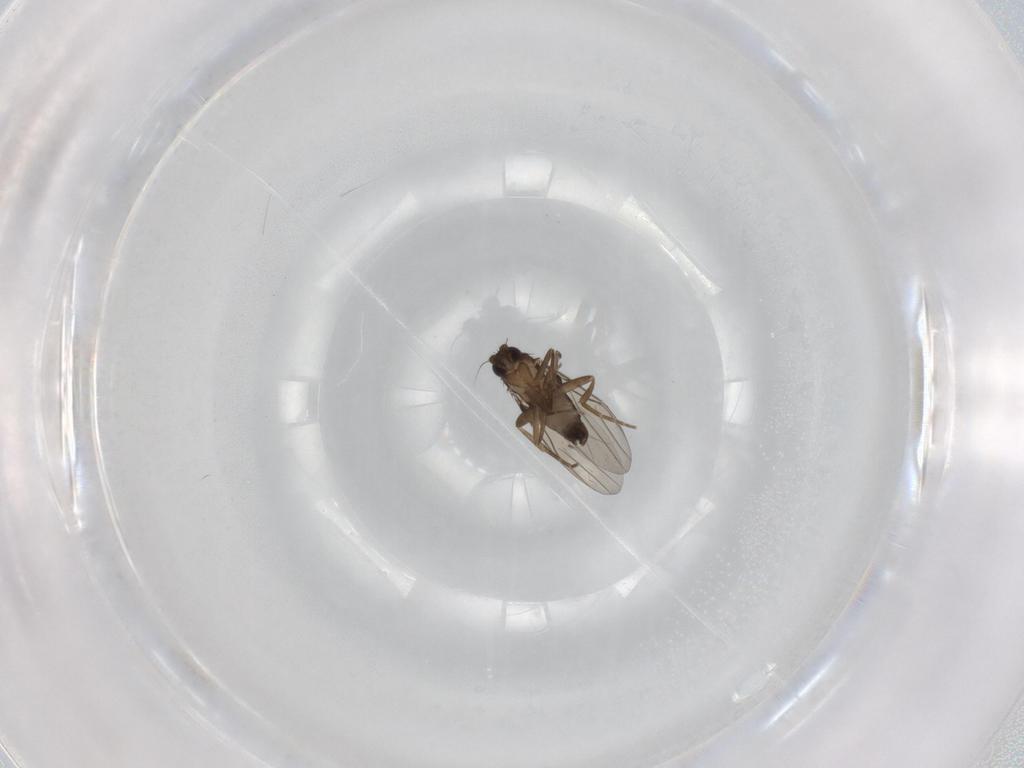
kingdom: Animalia
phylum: Arthropoda
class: Insecta
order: Diptera
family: Phoridae
